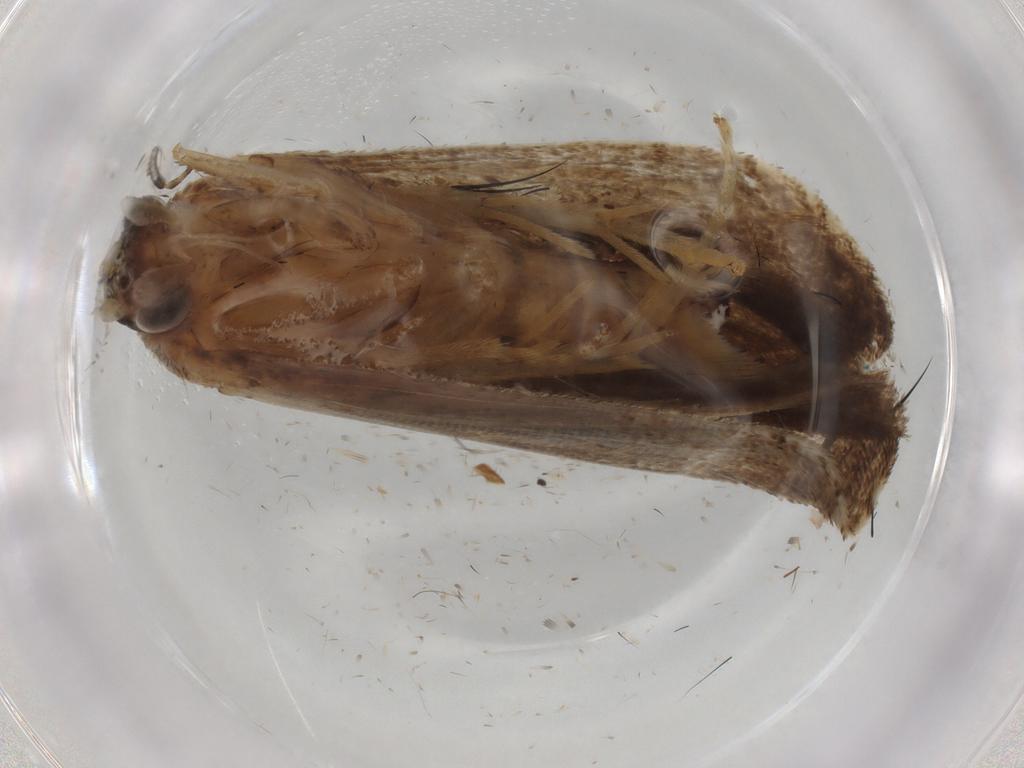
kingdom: Animalia
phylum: Arthropoda
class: Insecta
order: Lepidoptera
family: Tortricidae
